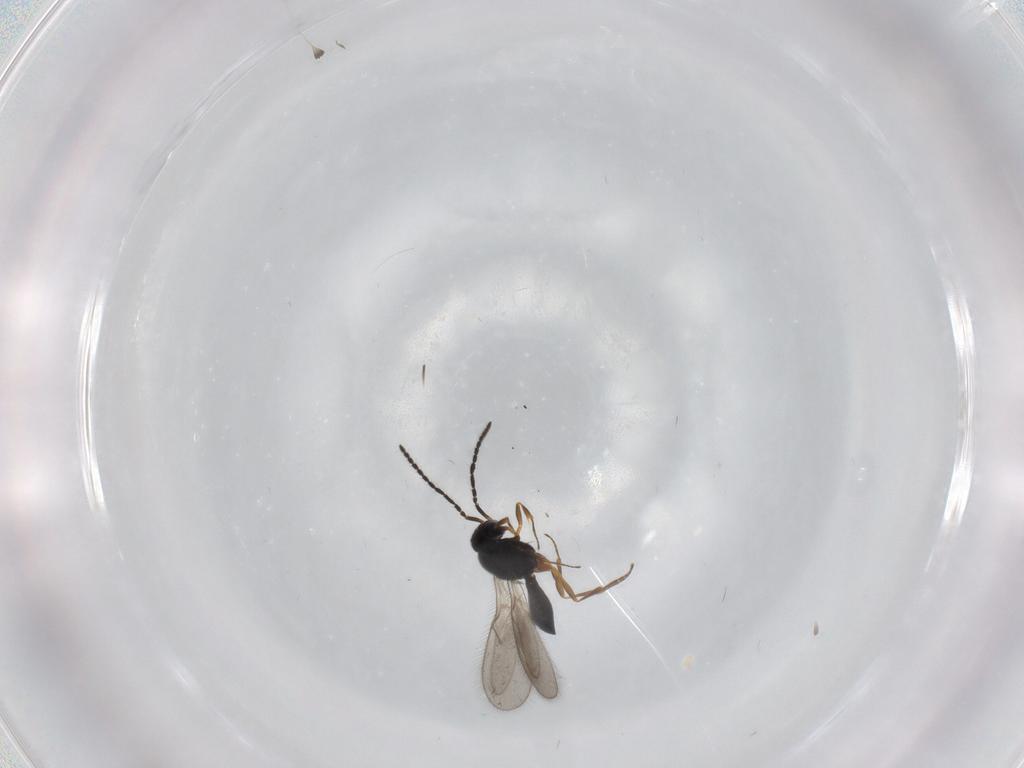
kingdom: Animalia
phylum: Arthropoda
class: Insecta
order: Hymenoptera
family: Scelionidae
